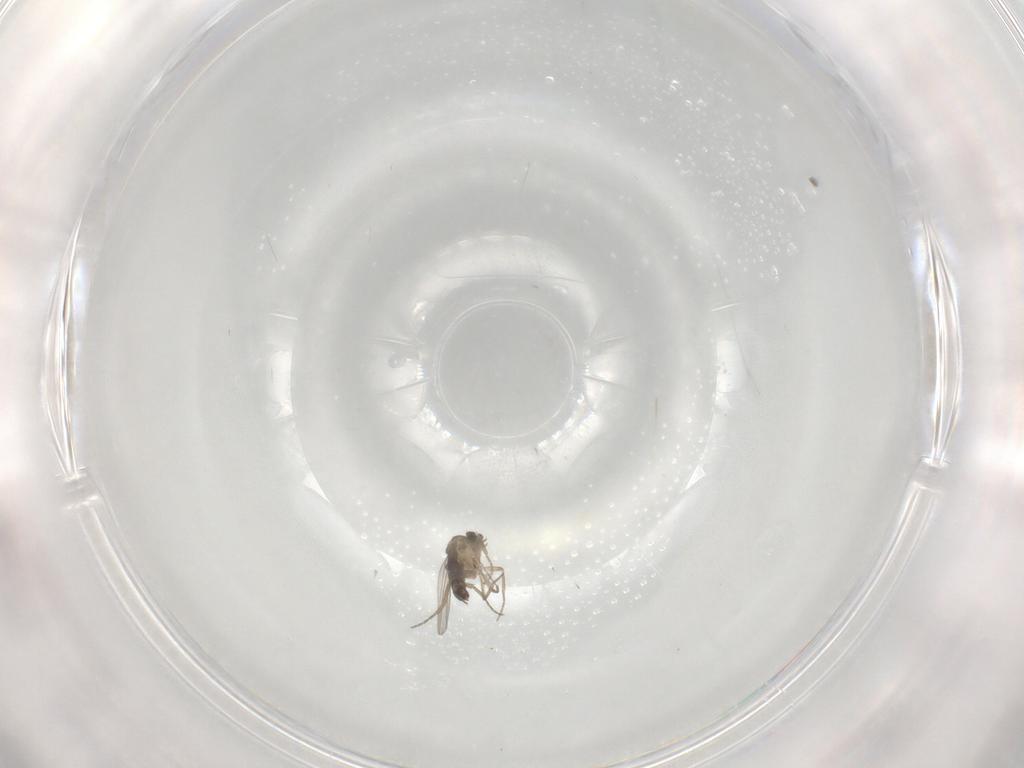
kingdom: Animalia
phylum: Arthropoda
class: Insecta
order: Diptera
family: Phoridae
